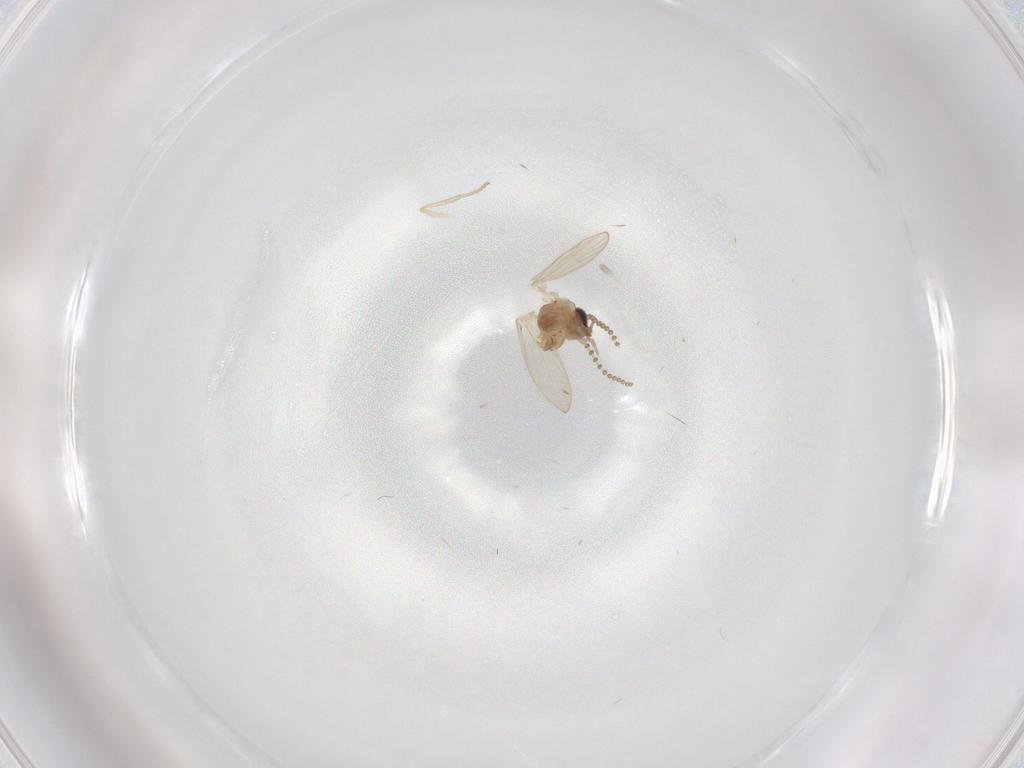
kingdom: Animalia
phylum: Arthropoda
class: Insecta
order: Diptera
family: Psychodidae
